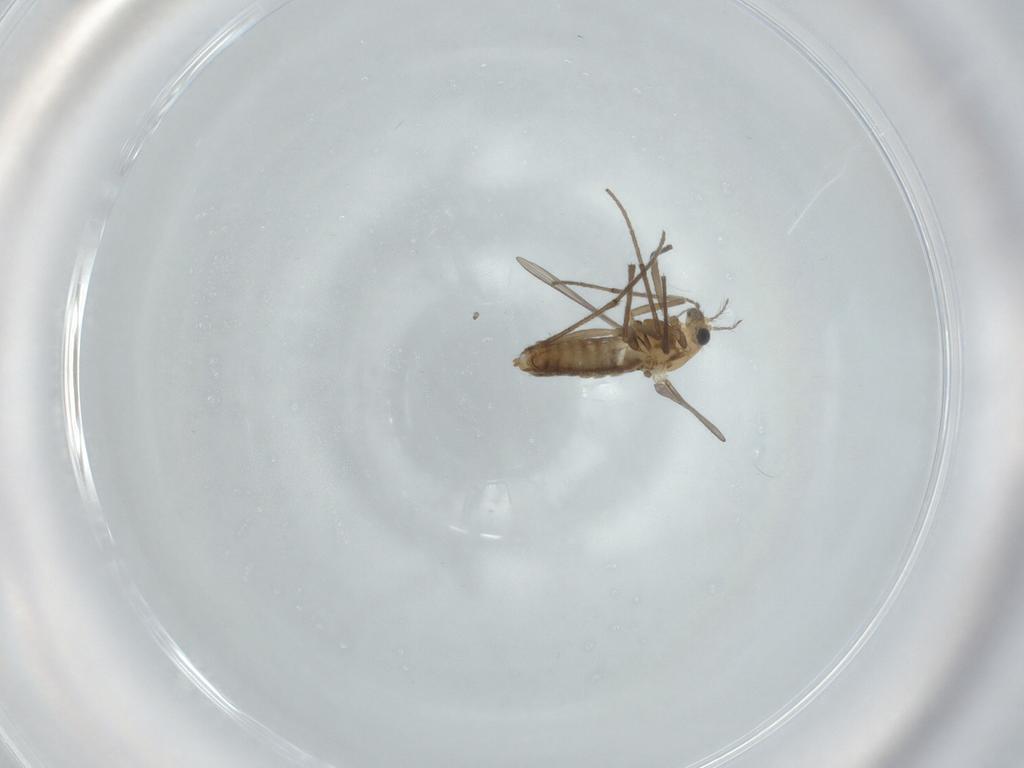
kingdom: Animalia
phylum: Arthropoda
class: Insecta
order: Diptera
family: Chironomidae
